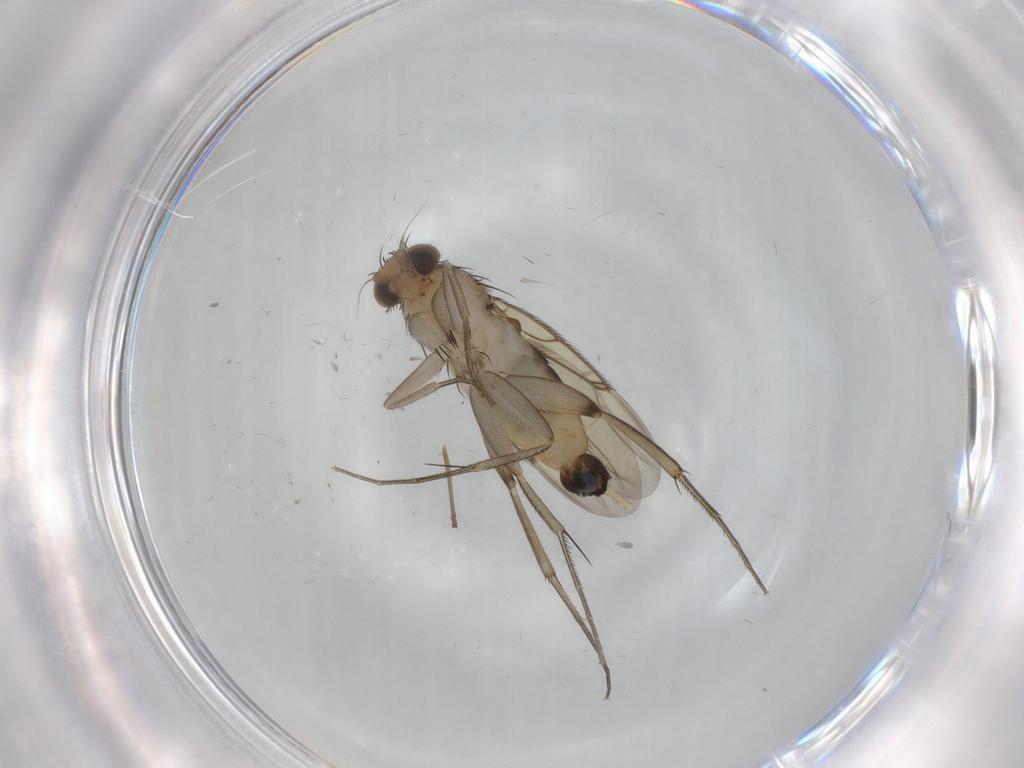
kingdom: Animalia
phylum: Arthropoda
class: Insecta
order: Diptera
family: Phoridae
